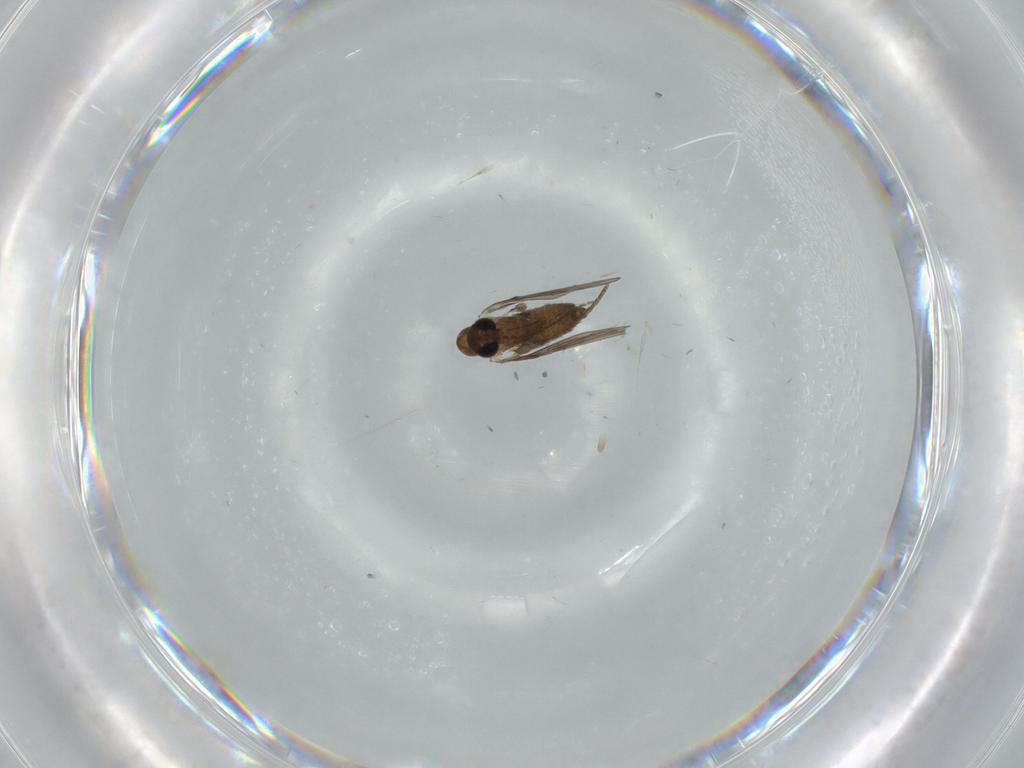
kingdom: Animalia
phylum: Arthropoda
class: Insecta
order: Diptera
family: Psychodidae
